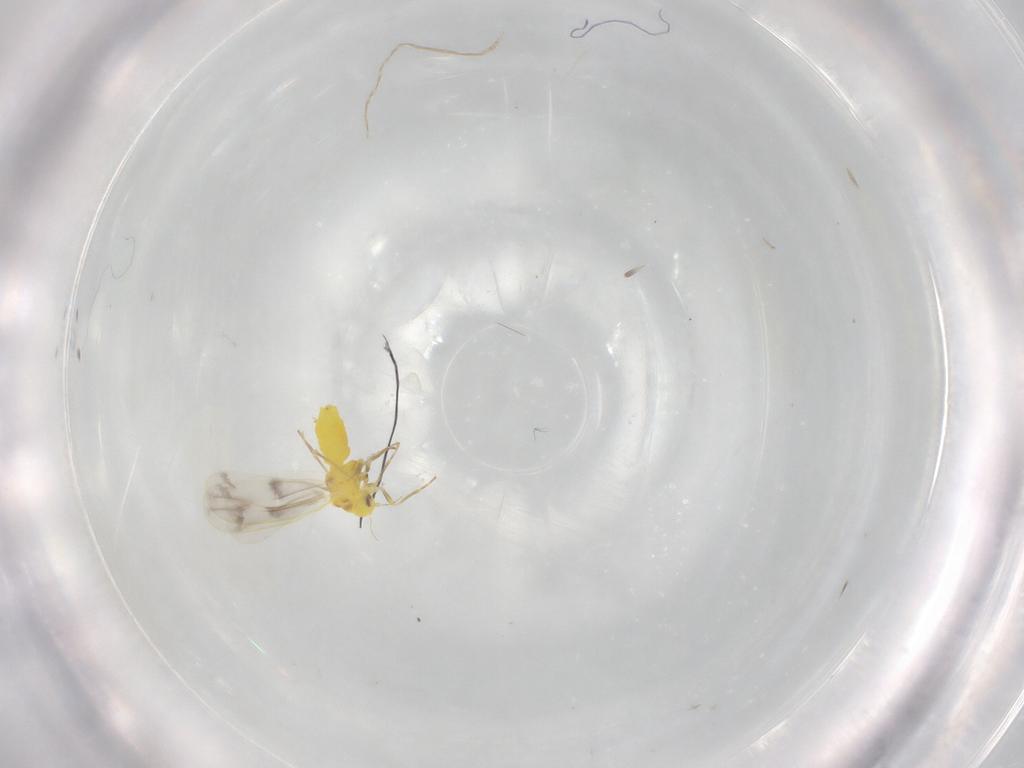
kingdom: Animalia
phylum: Arthropoda
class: Insecta
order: Hemiptera
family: Aleyrodidae
